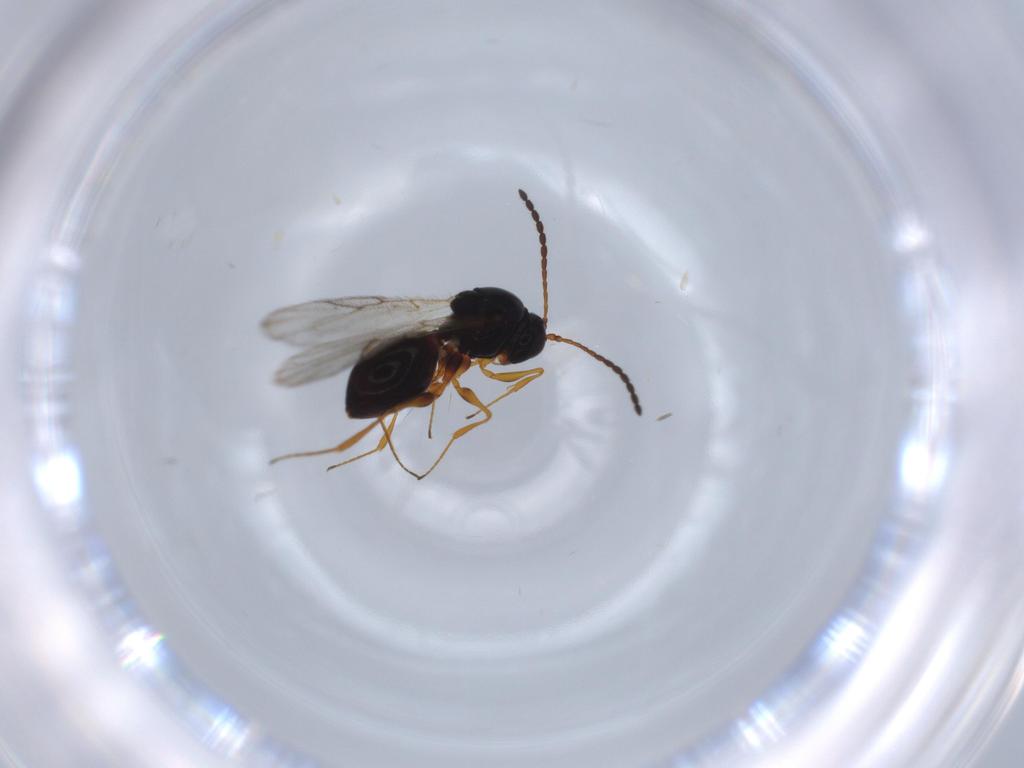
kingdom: Animalia
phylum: Arthropoda
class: Insecta
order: Hymenoptera
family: Figitidae
